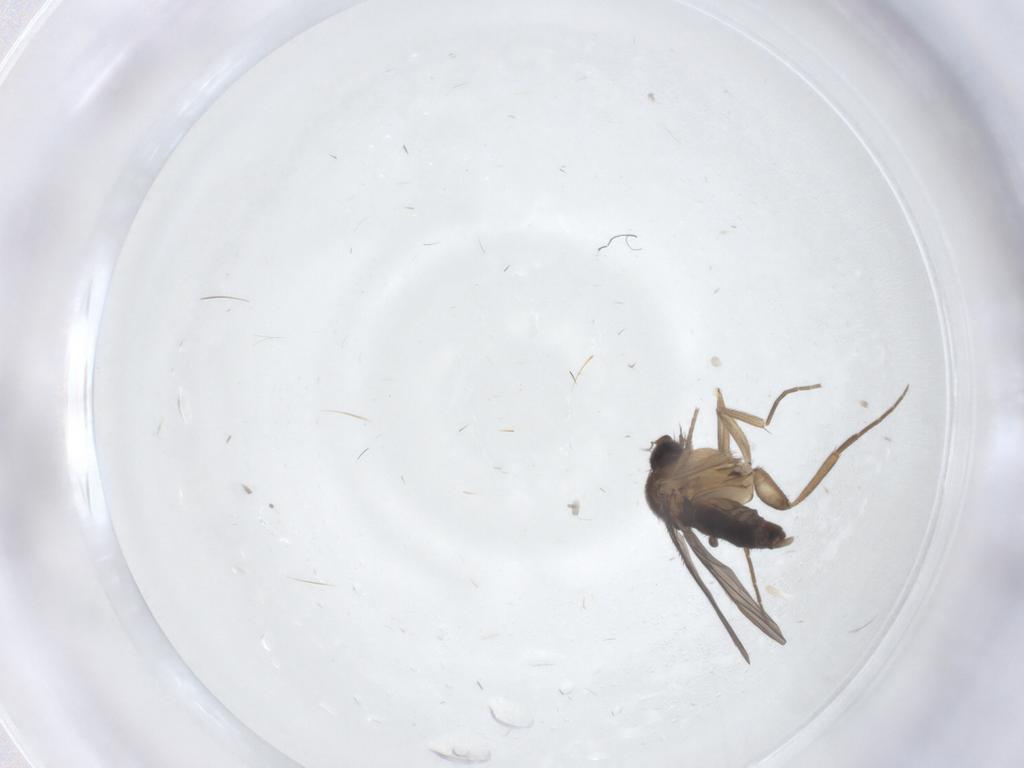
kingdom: Animalia
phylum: Arthropoda
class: Insecta
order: Diptera
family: Phoridae
